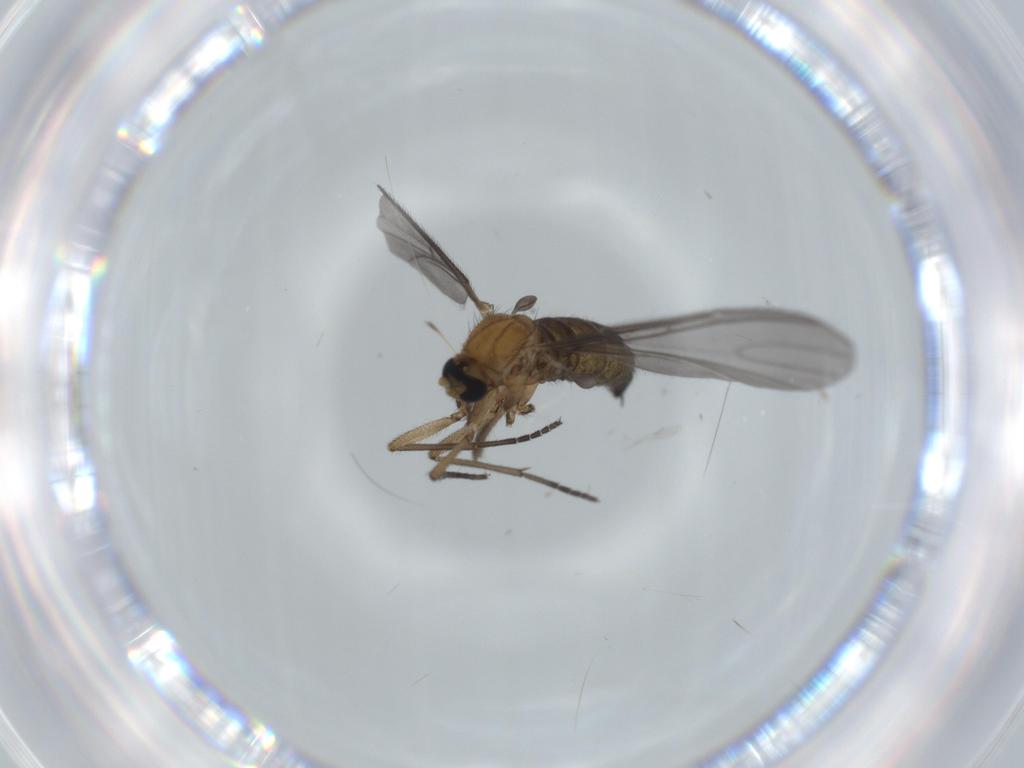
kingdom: Animalia
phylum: Arthropoda
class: Insecta
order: Diptera
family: Sciaridae
